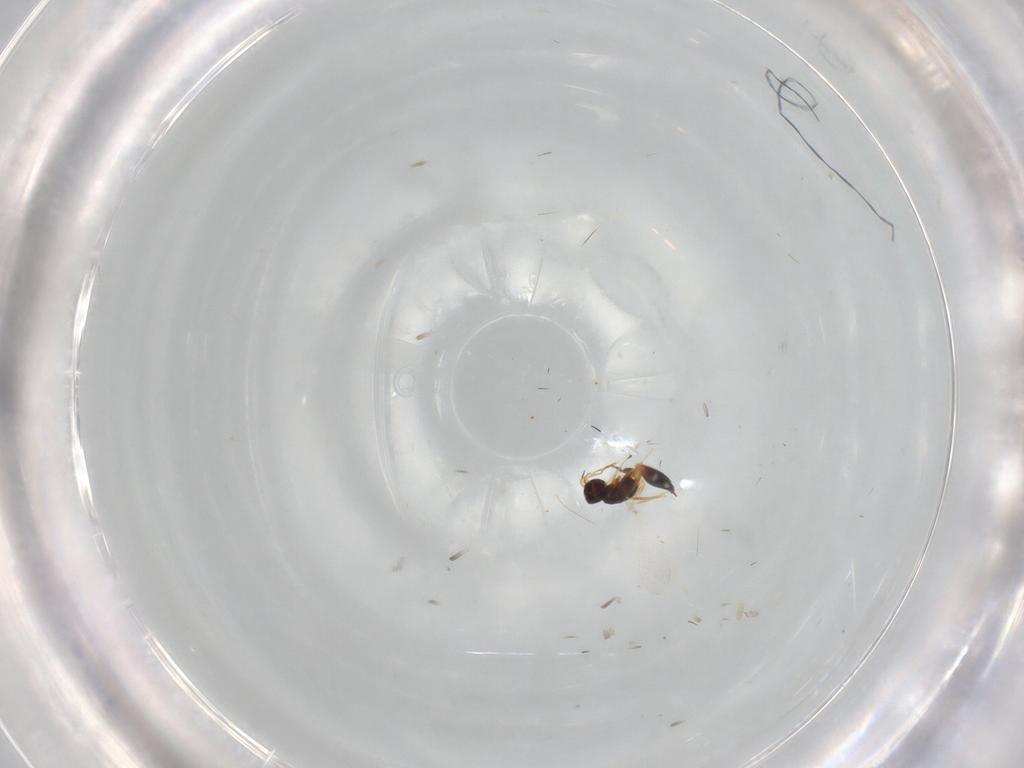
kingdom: Animalia
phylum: Arthropoda
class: Insecta
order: Hymenoptera
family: Mymaridae
